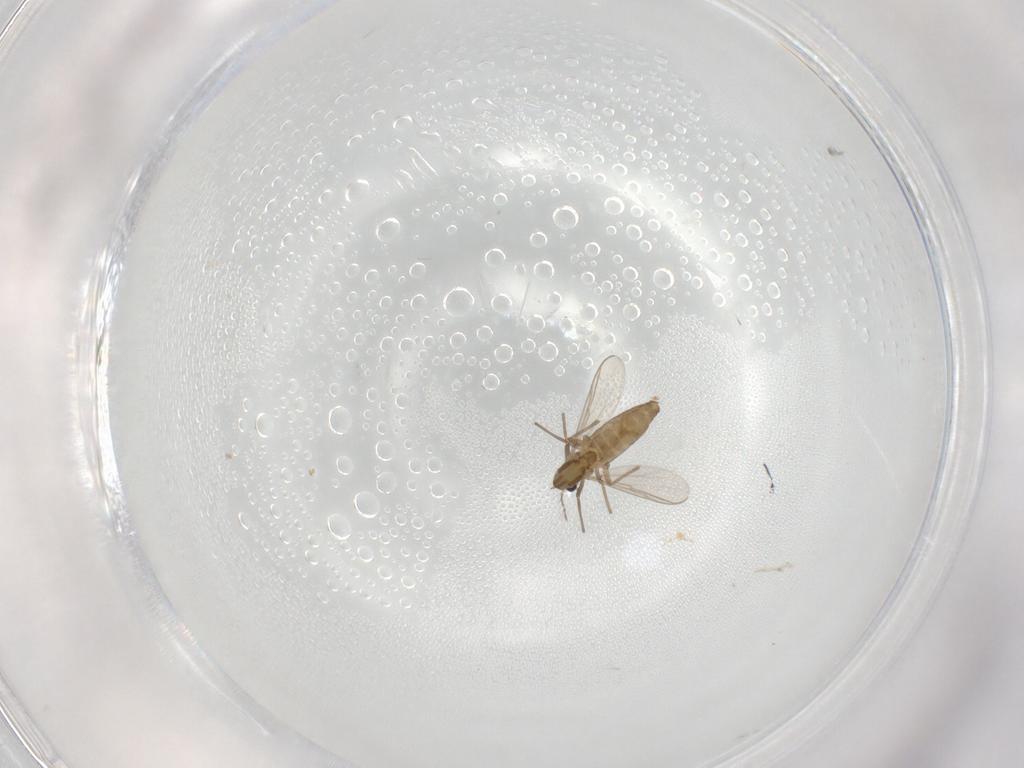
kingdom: Animalia
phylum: Arthropoda
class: Insecta
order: Diptera
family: Chironomidae
